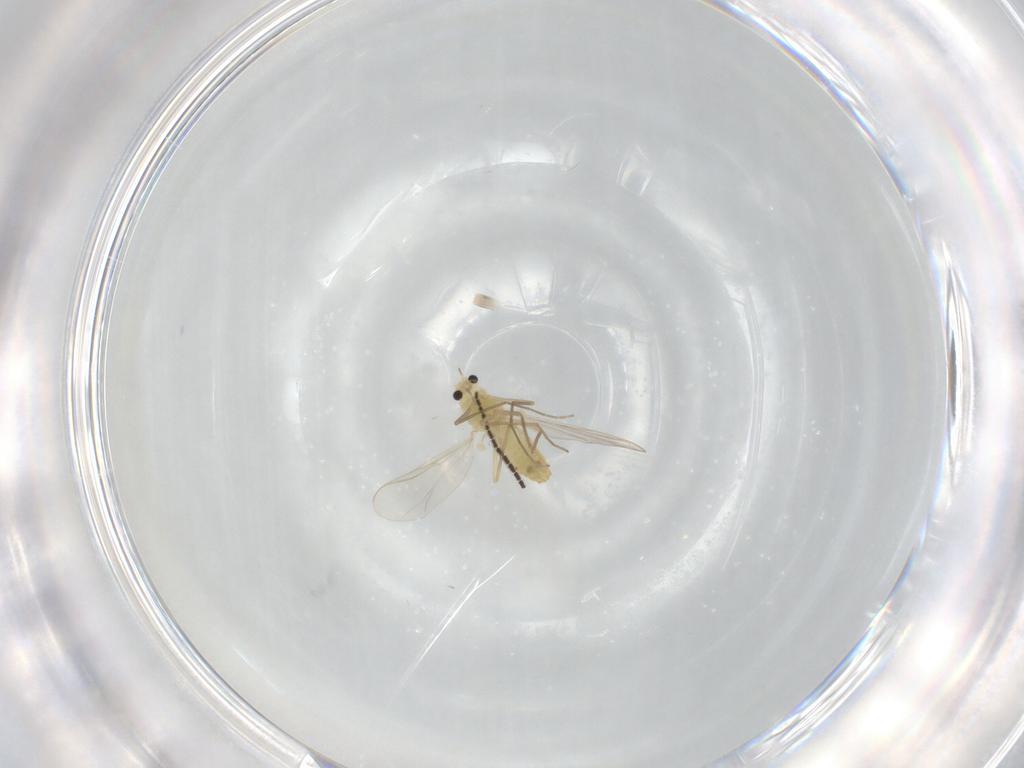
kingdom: Animalia
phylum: Arthropoda
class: Insecta
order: Diptera
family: Chironomidae
